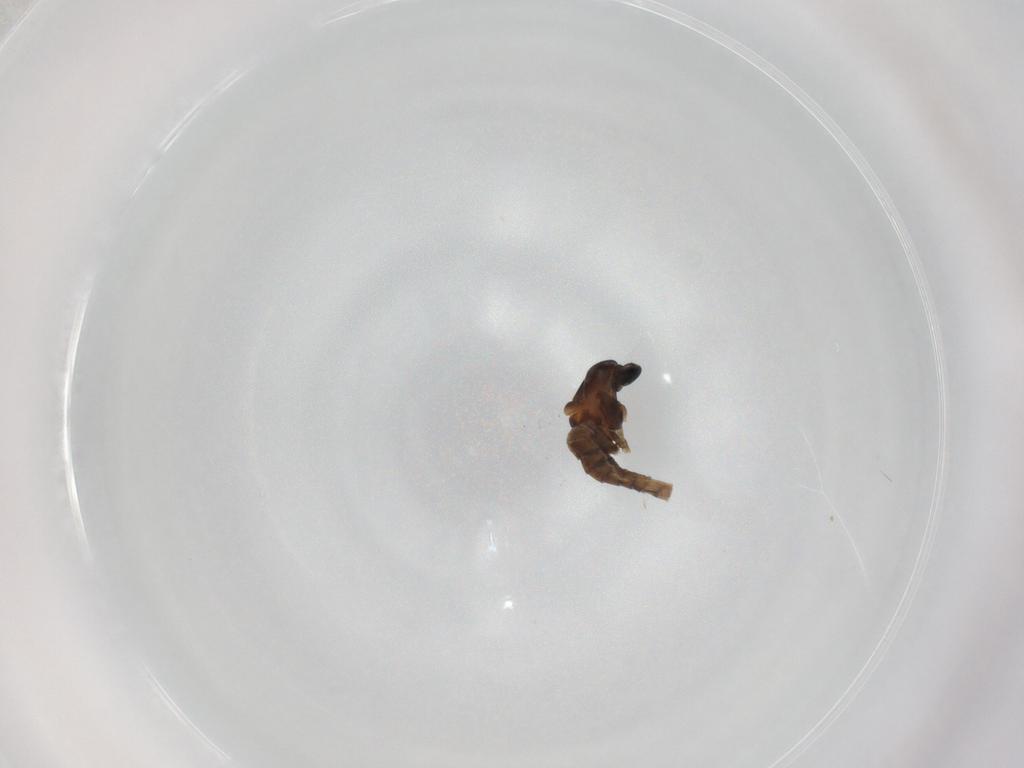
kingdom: Animalia
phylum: Arthropoda
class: Insecta
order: Diptera
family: Cecidomyiidae
